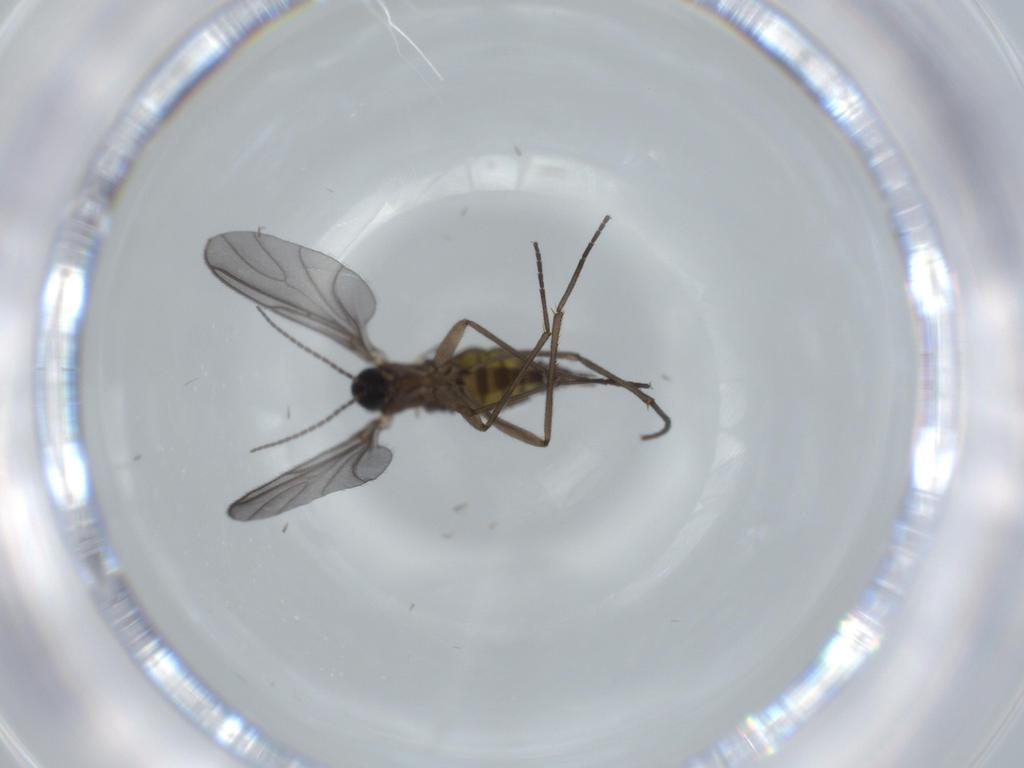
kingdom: Animalia
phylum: Arthropoda
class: Insecta
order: Diptera
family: Sciaridae
